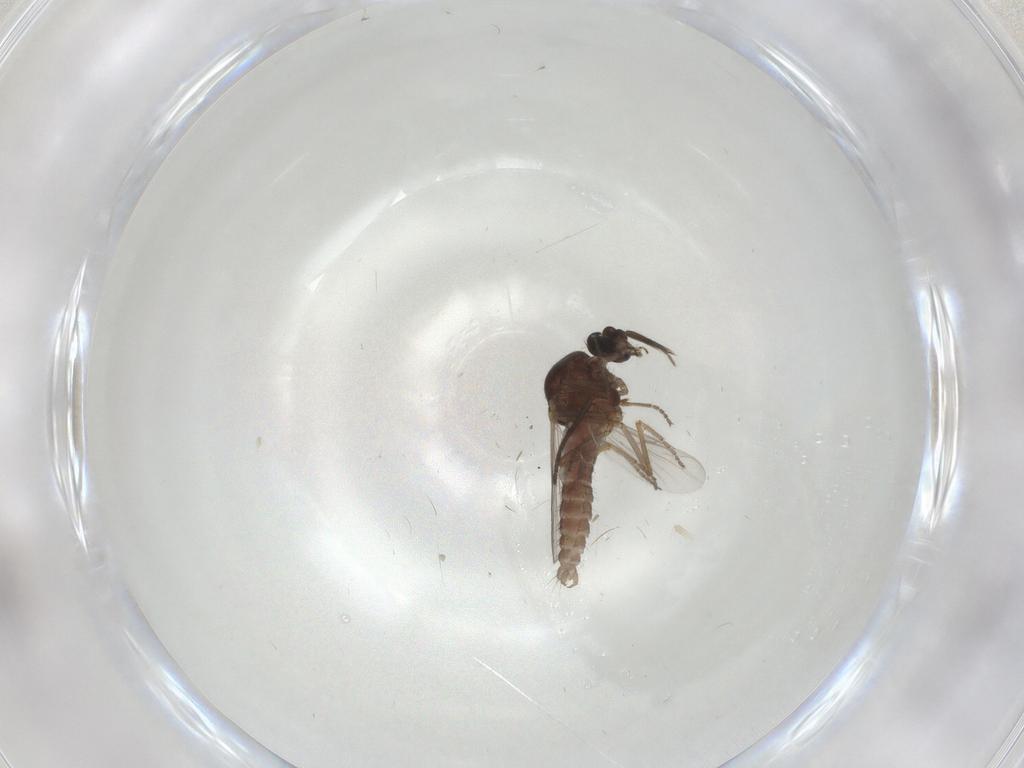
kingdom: Animalia
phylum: Arthropoda
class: Insecta
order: Diptera
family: Ceratopogonidae
